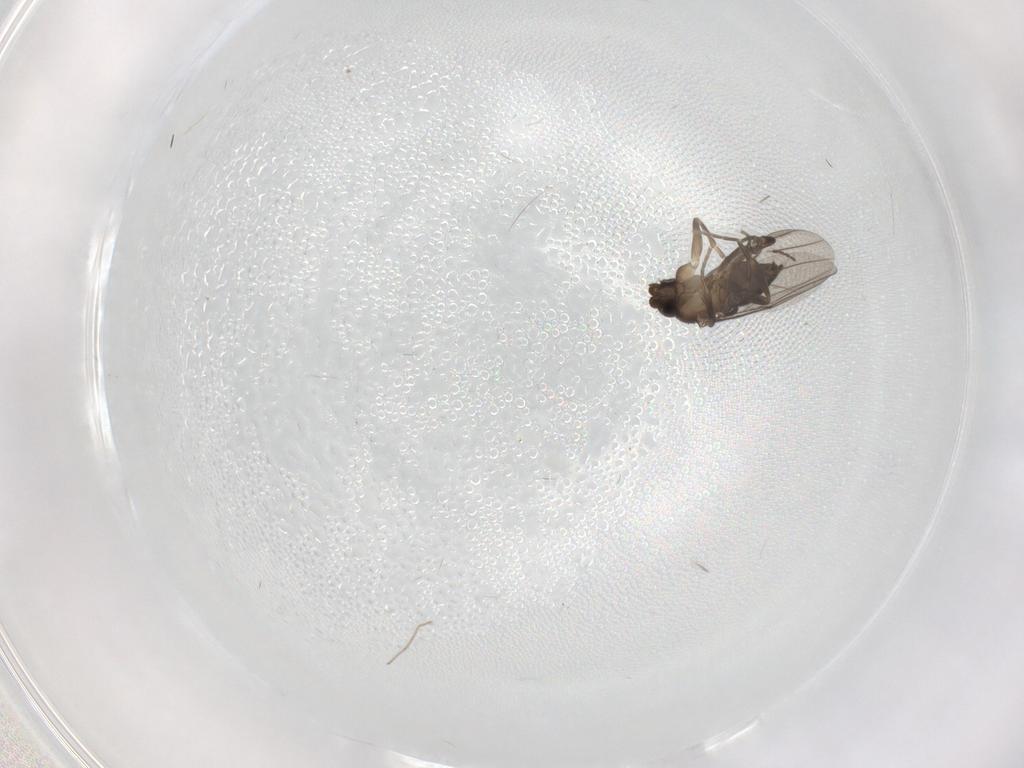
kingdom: Animalia
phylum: Arthropoda
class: Insecta
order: Diptera
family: Cecidomyiidae
